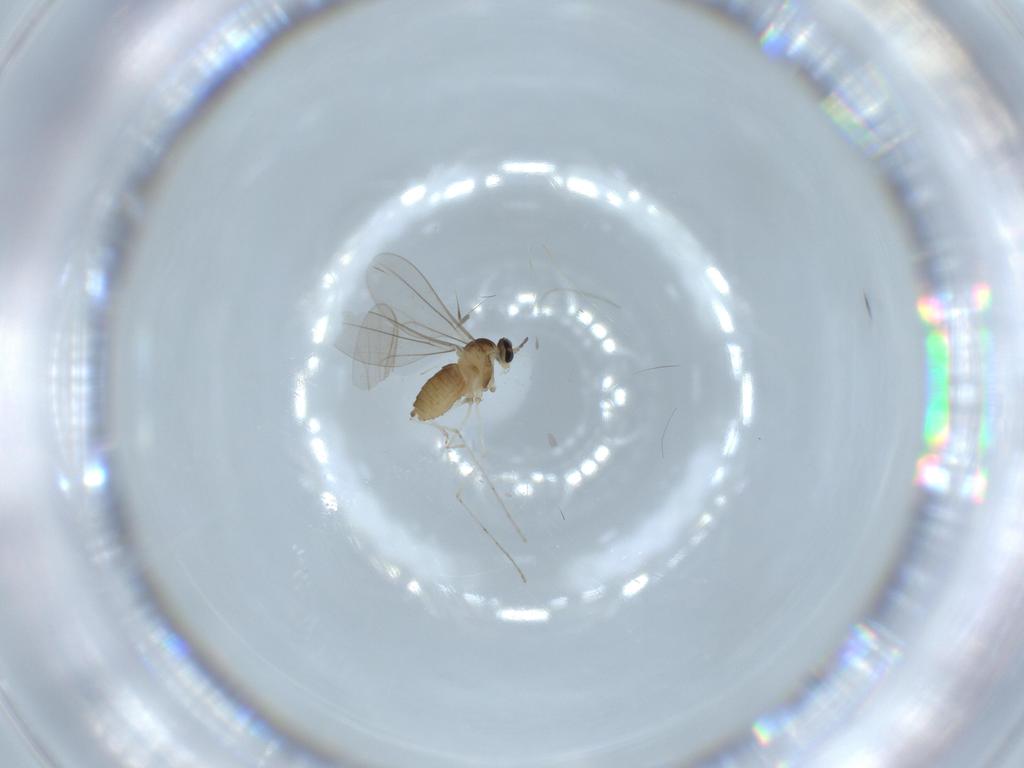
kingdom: Animalia
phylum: Arthropoda
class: Insecta
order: Diptera
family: Cecidomyiidae
